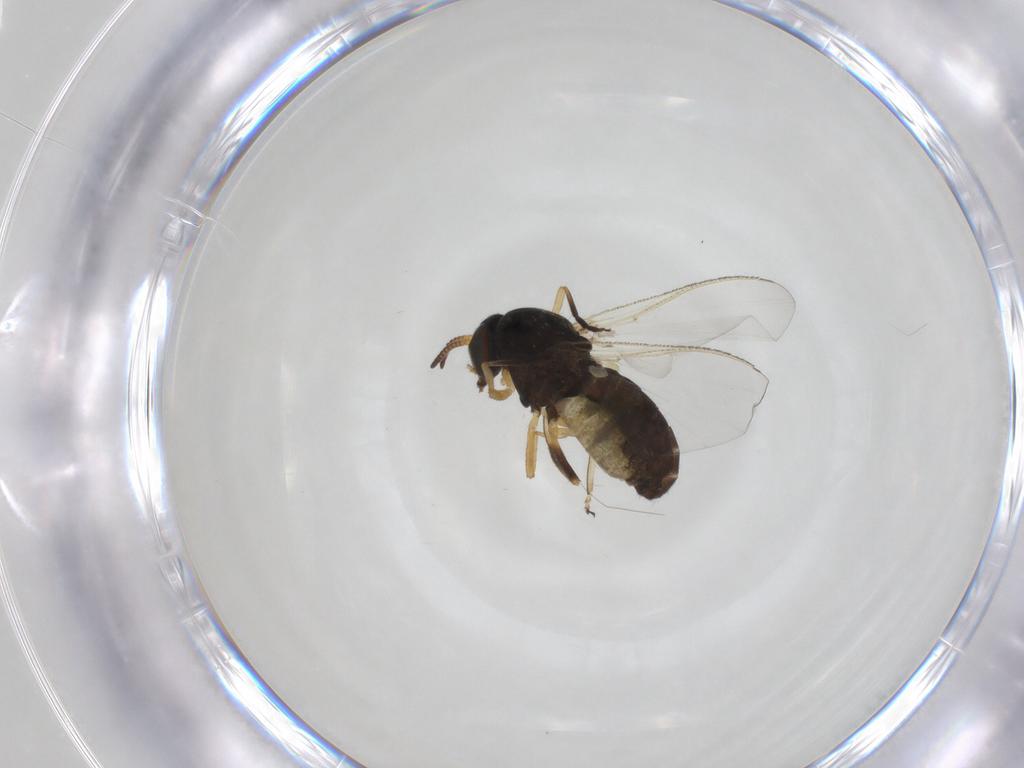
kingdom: Animalia
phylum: Arthropoda
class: Insecta
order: Diptera
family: Simuliidae
